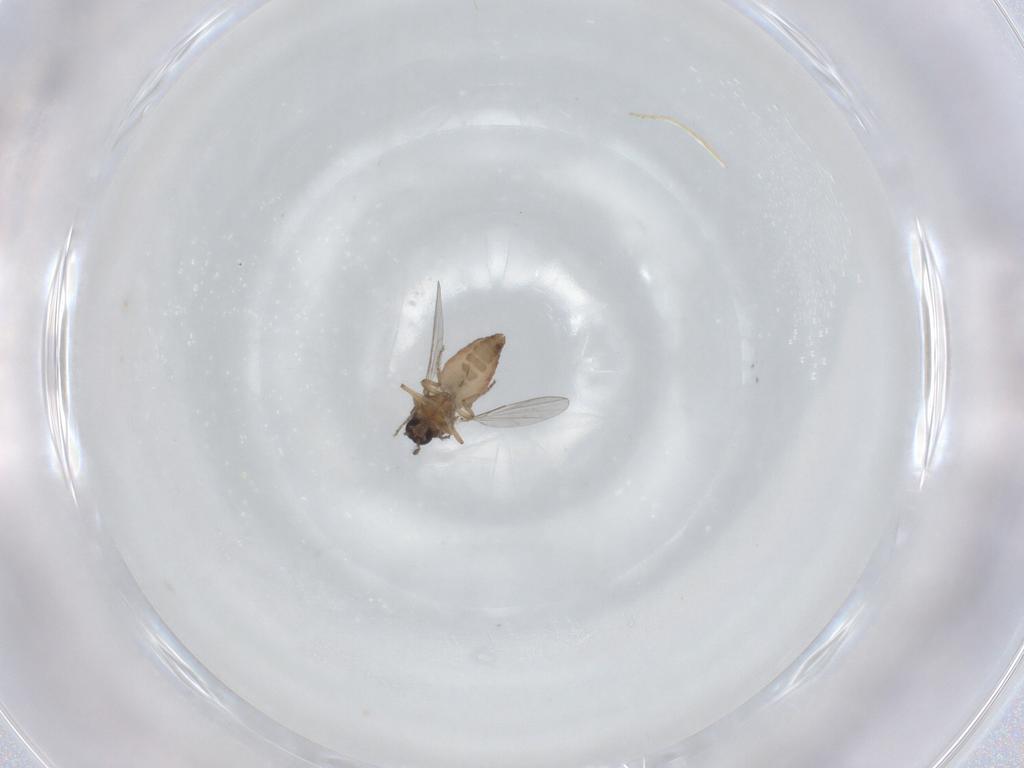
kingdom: Animalia
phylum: Arthropoda
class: Insecta
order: Diptera
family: Ceratopogonidae
